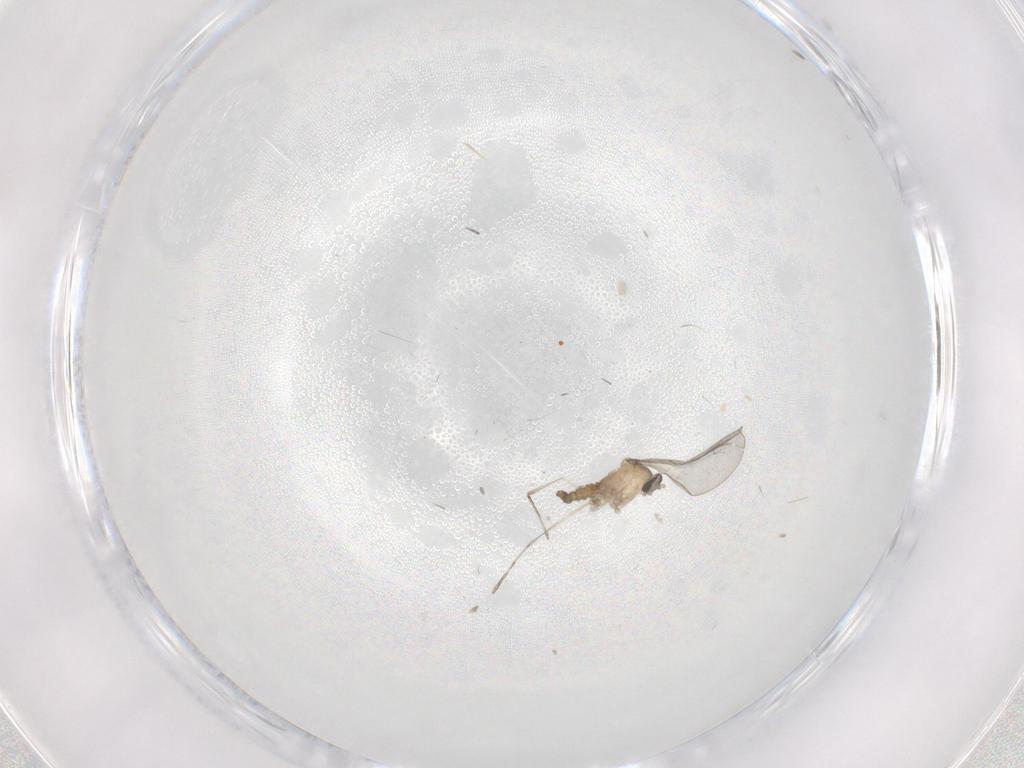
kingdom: Animalia
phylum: Arthropoda
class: Insecta
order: Diptera
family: Cecidomyiidae
